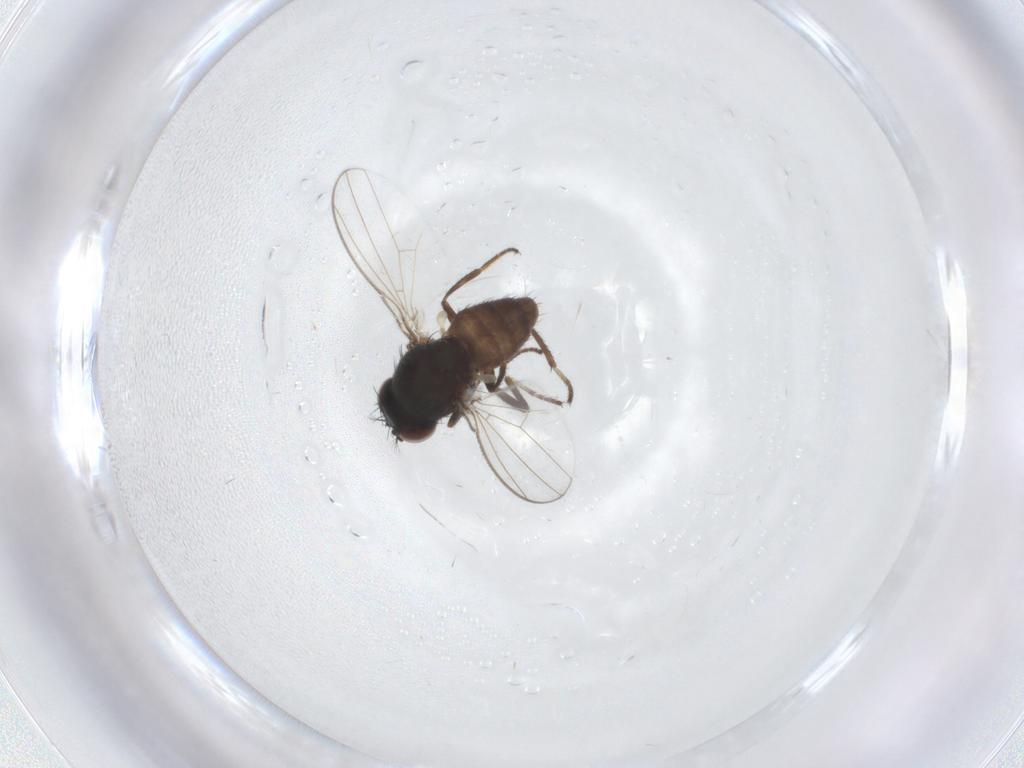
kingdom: Animalia
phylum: Arthropoda
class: Insecta
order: Diptera
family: Ephydridae
